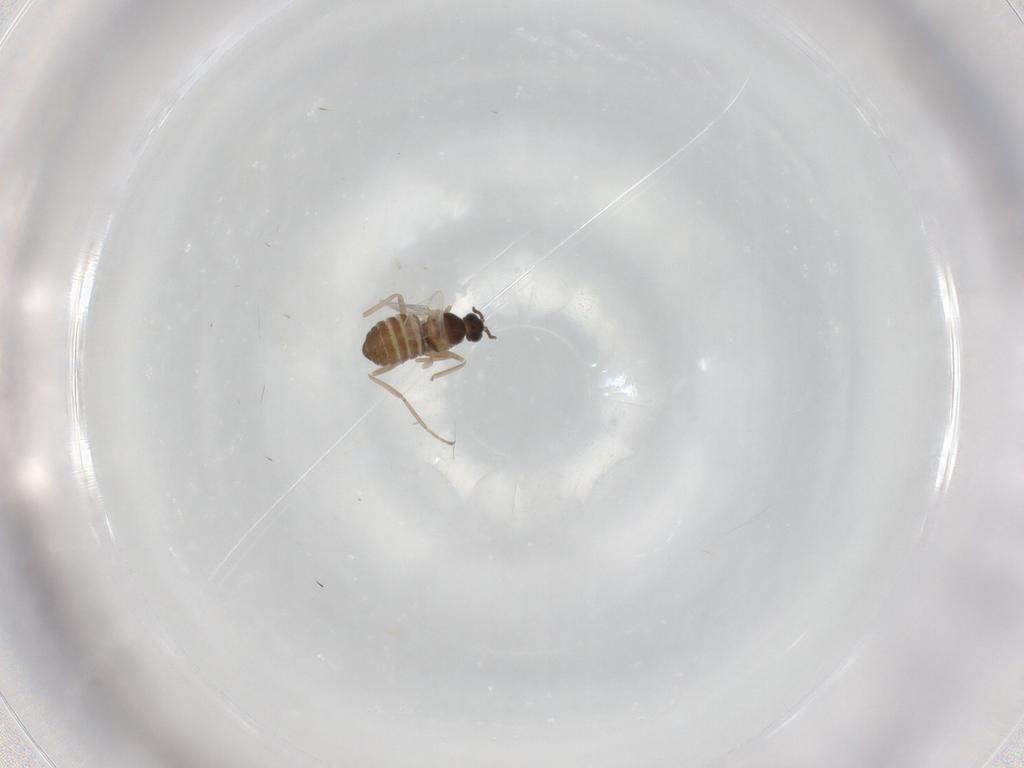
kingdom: Animalia
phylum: Arthropoda
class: Insecta
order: Diptera
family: Cecidomyiidae
